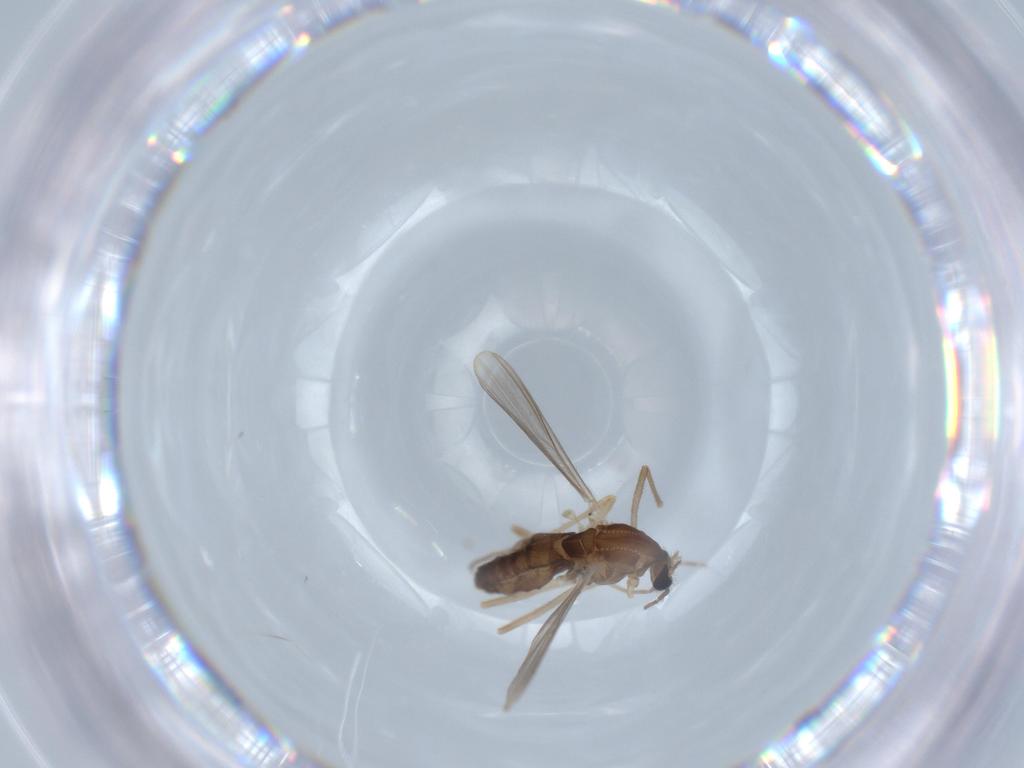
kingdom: Animalia
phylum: Arthropoda
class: Insecta
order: Diptera
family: Chironomidae
